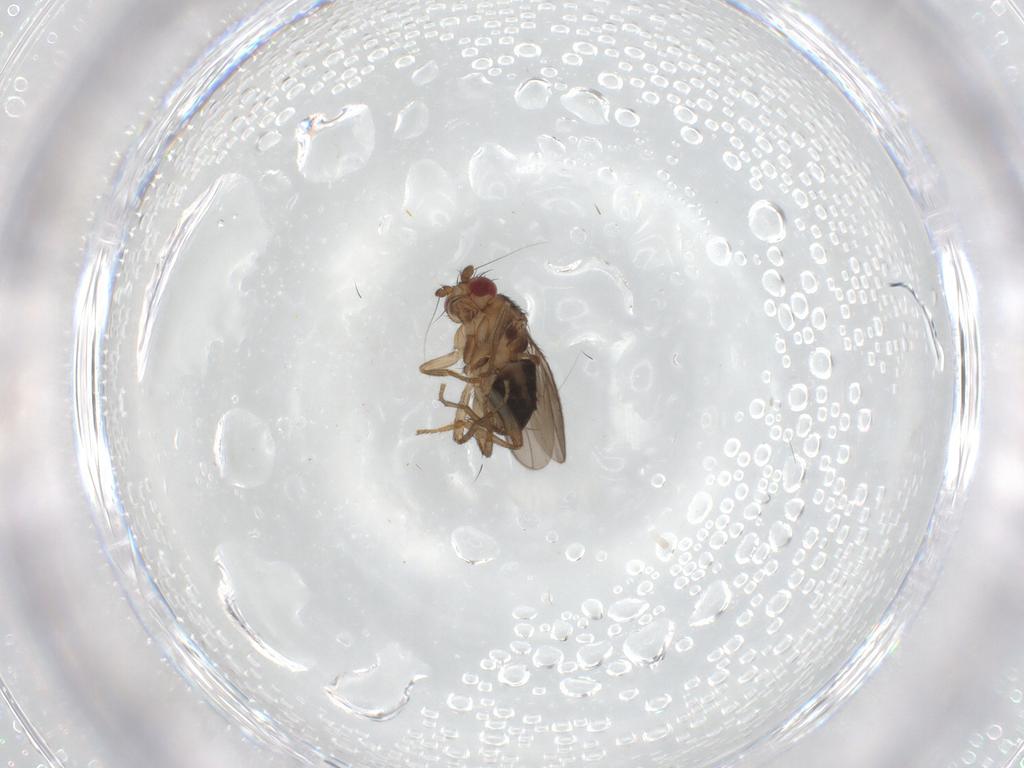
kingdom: Animalia
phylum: Arthropoda
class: Insecta
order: Diptera
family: Sphaeroceridae
